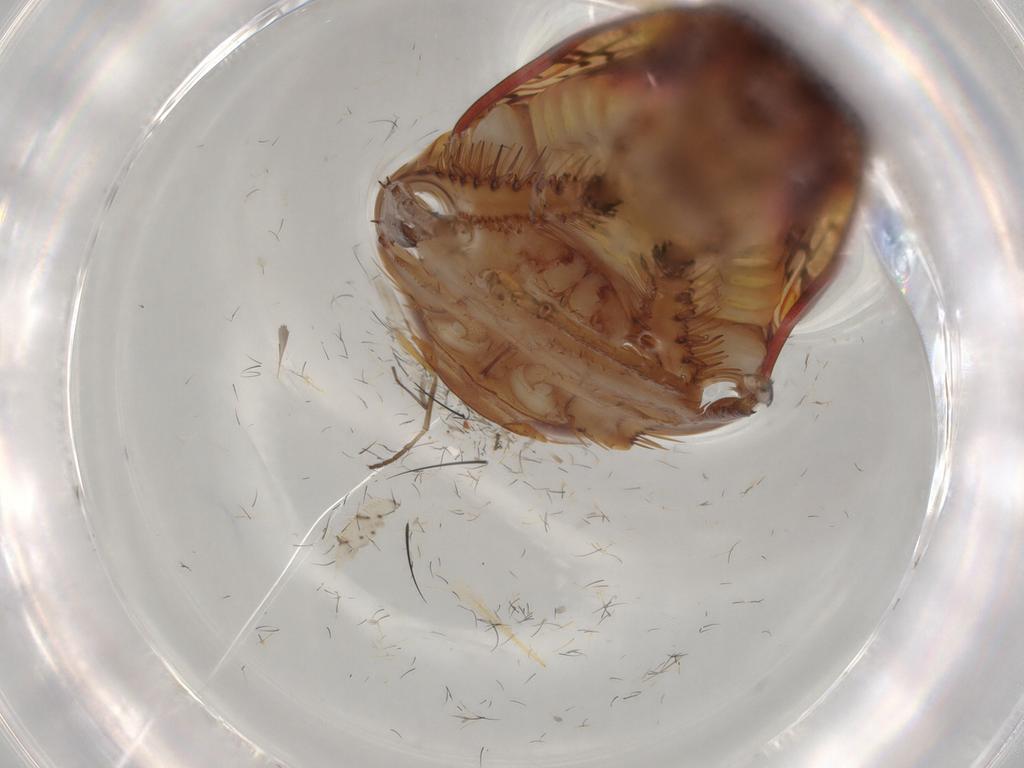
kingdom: Animalia
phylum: Arthropoda
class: Insecta
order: Hemiptera
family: Cicadellidae
